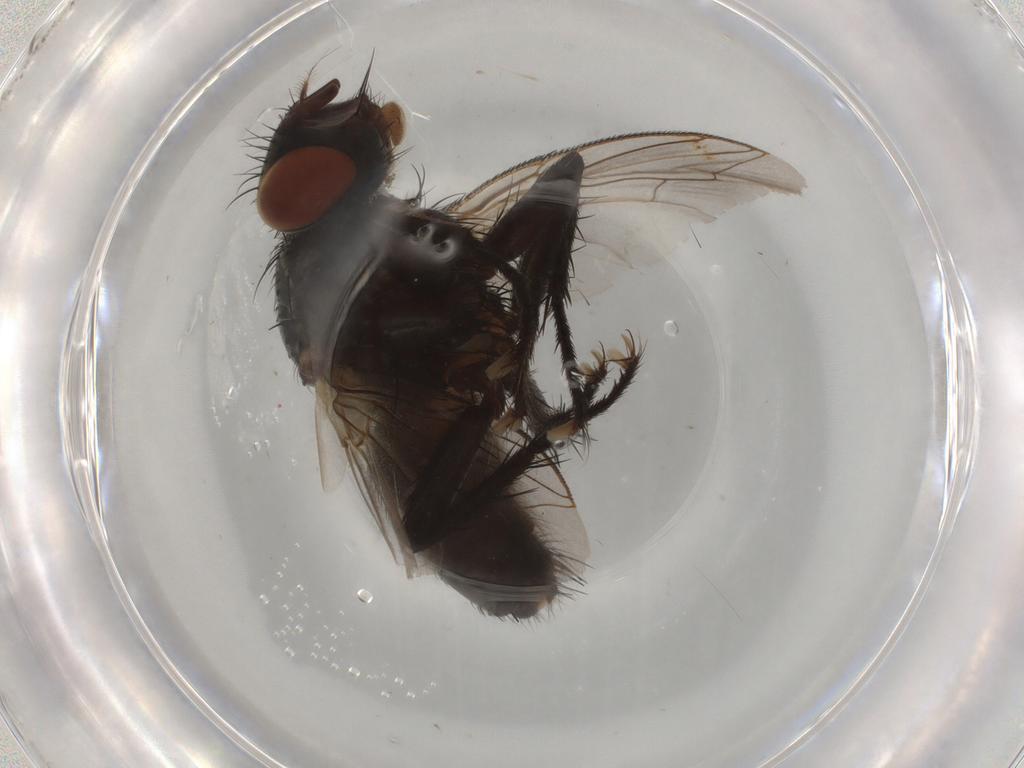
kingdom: Animalia
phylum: Arthropoda
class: Insecta
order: Diptera
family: Sarcophagidae
